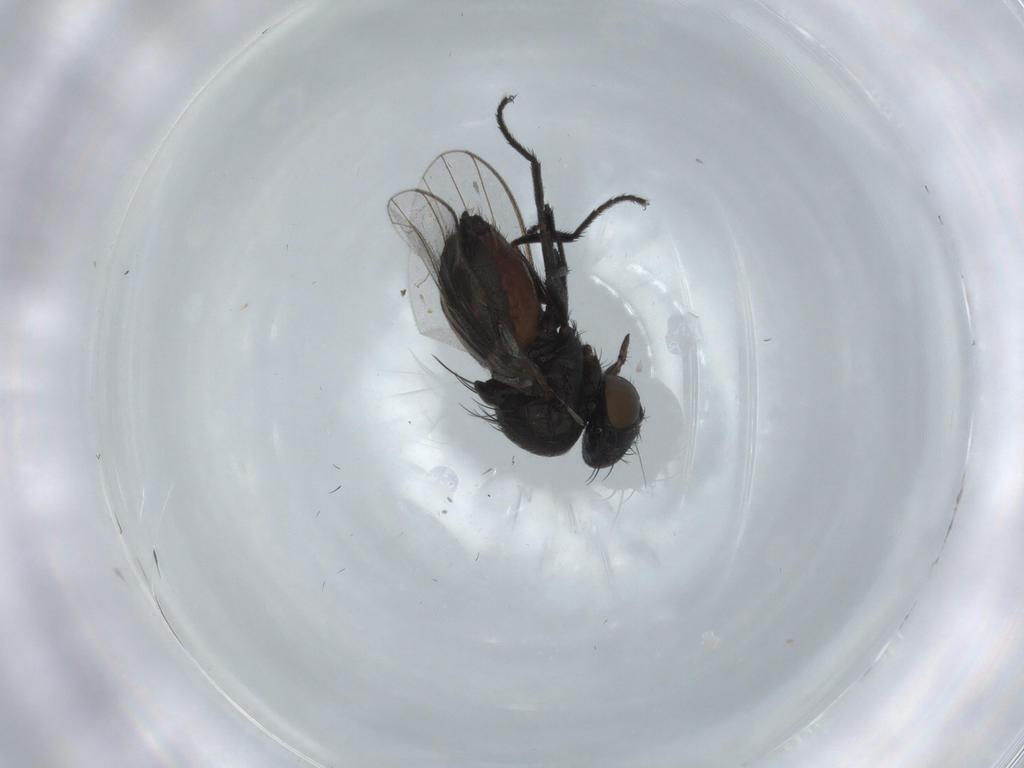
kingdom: Animalia
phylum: Arthropoda
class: Insecta
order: Diptera
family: Milichiidae
